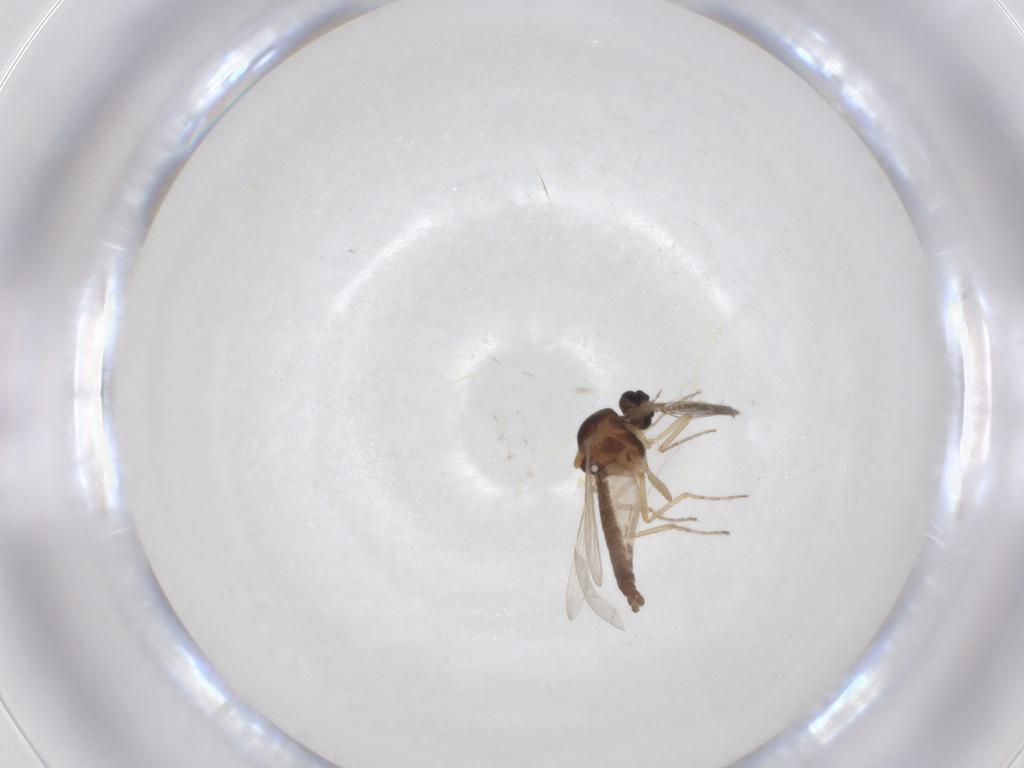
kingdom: Animalia
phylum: Arthropoda
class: Insecta
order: Diptera
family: Ceratopogonidae
